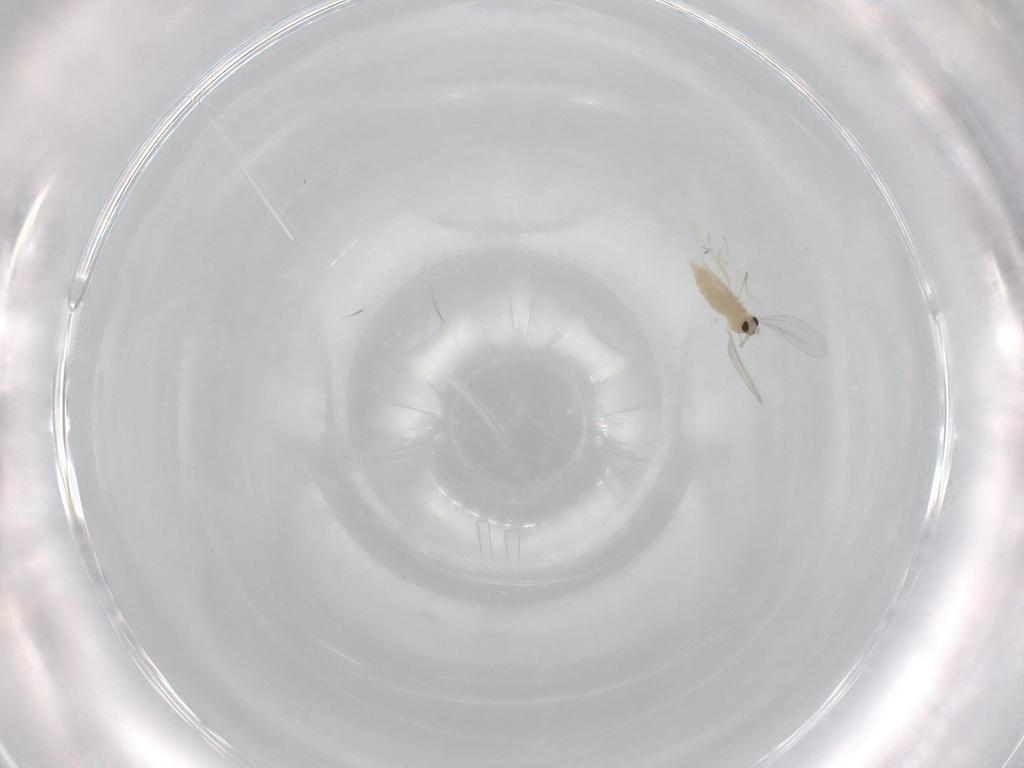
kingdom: Animalia
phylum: Arthropoda
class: Insecta
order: Diptera
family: Cecidomyiidae
